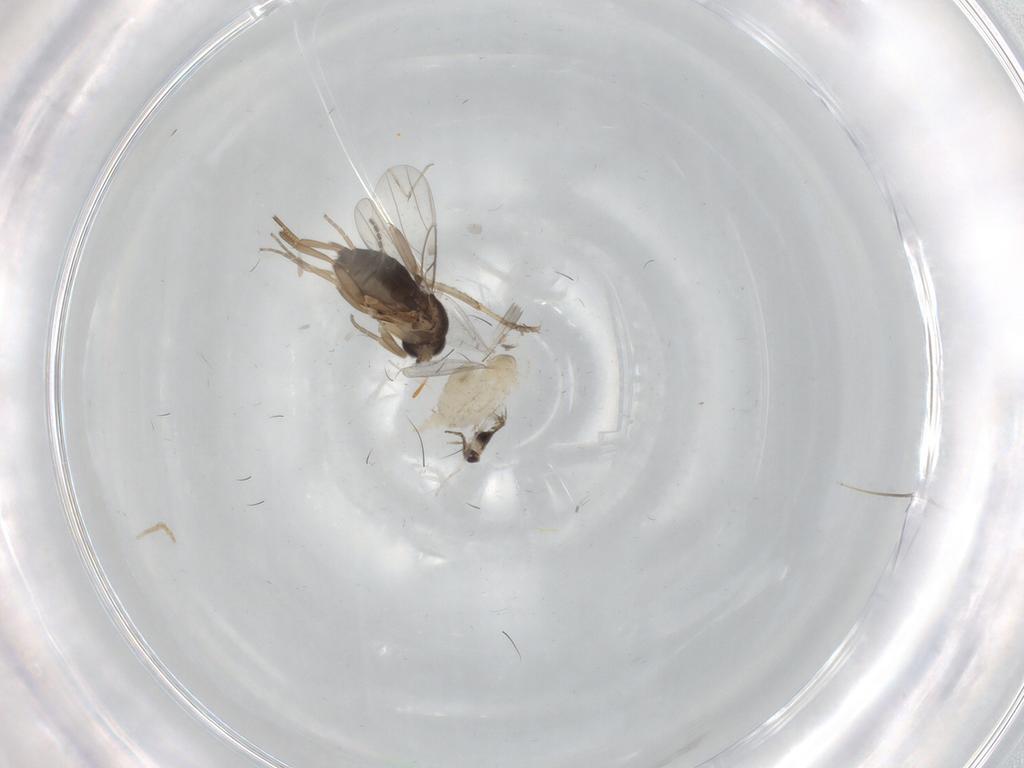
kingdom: Animalia
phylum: Arthropoda
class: Insecta
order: Diptera
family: Cecidomyiidae
